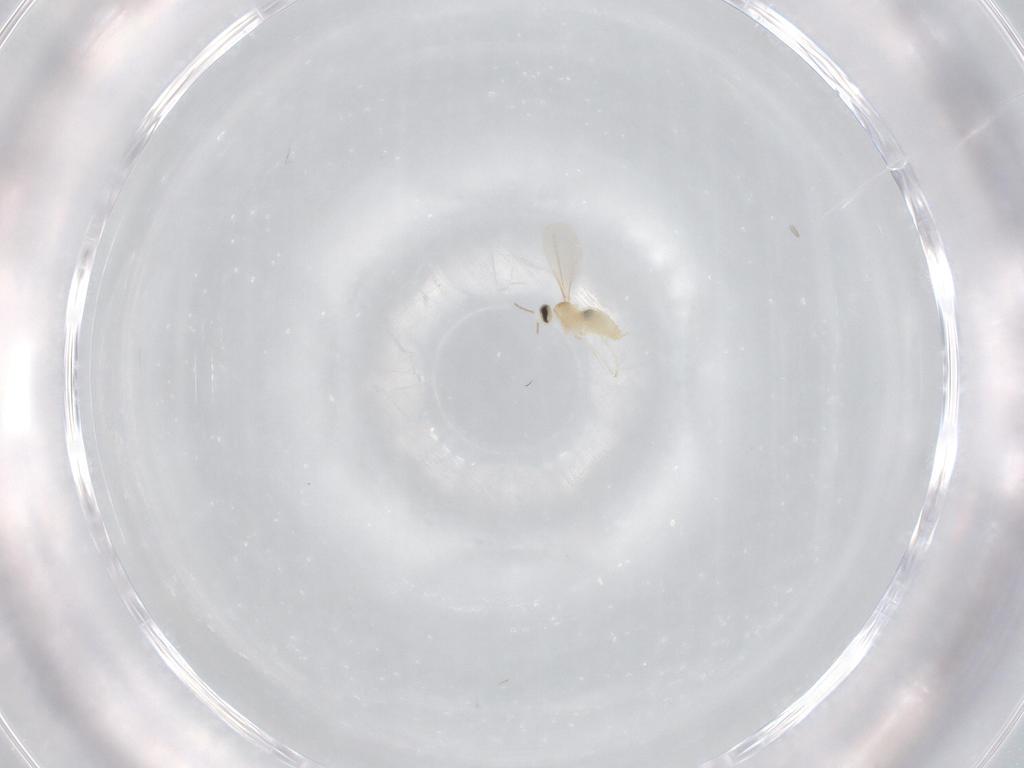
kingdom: Animalia
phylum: Arthropoda
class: Insecta
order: Diptera
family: Cecidomyiidae
